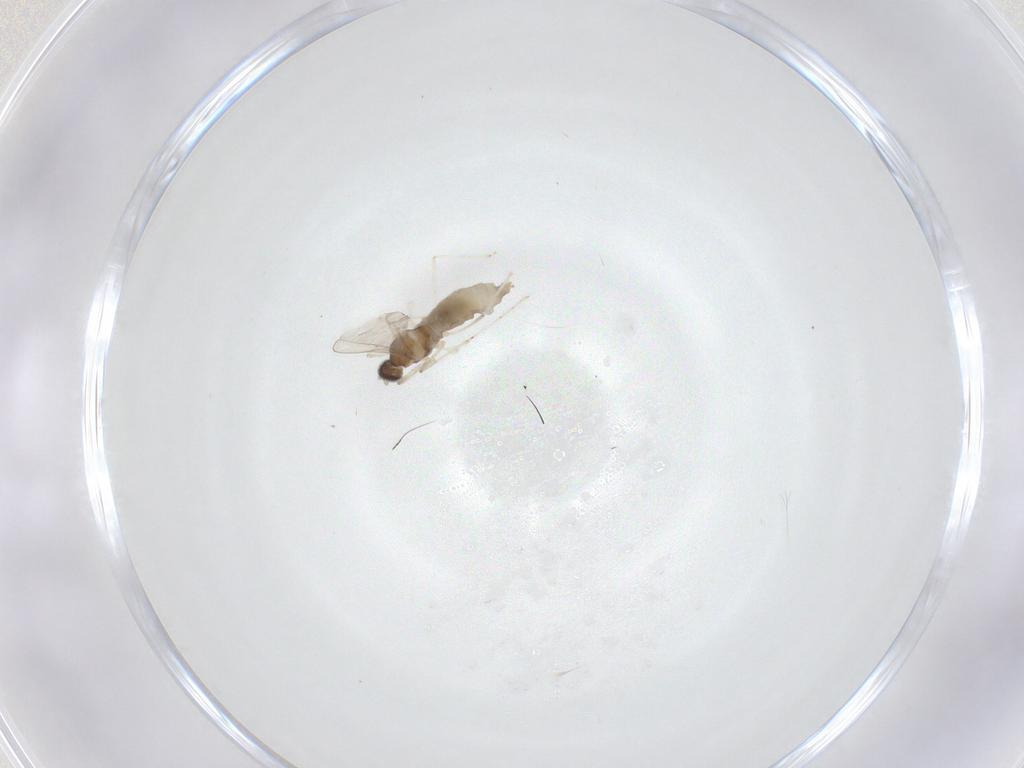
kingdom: Animalia
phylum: Arthropoda
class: Insecta
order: Diptera
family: Cecidomyiidae
